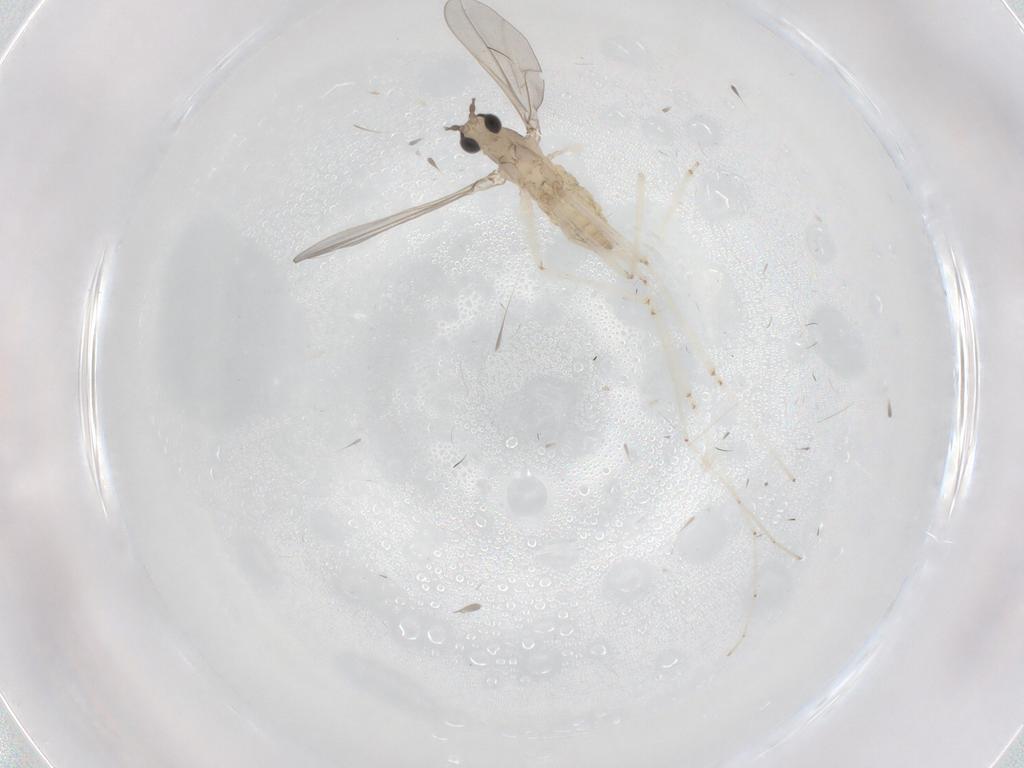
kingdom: Animalia
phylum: Arthropoda
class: Insecta
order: Diptera
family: Cecidomyiidae
